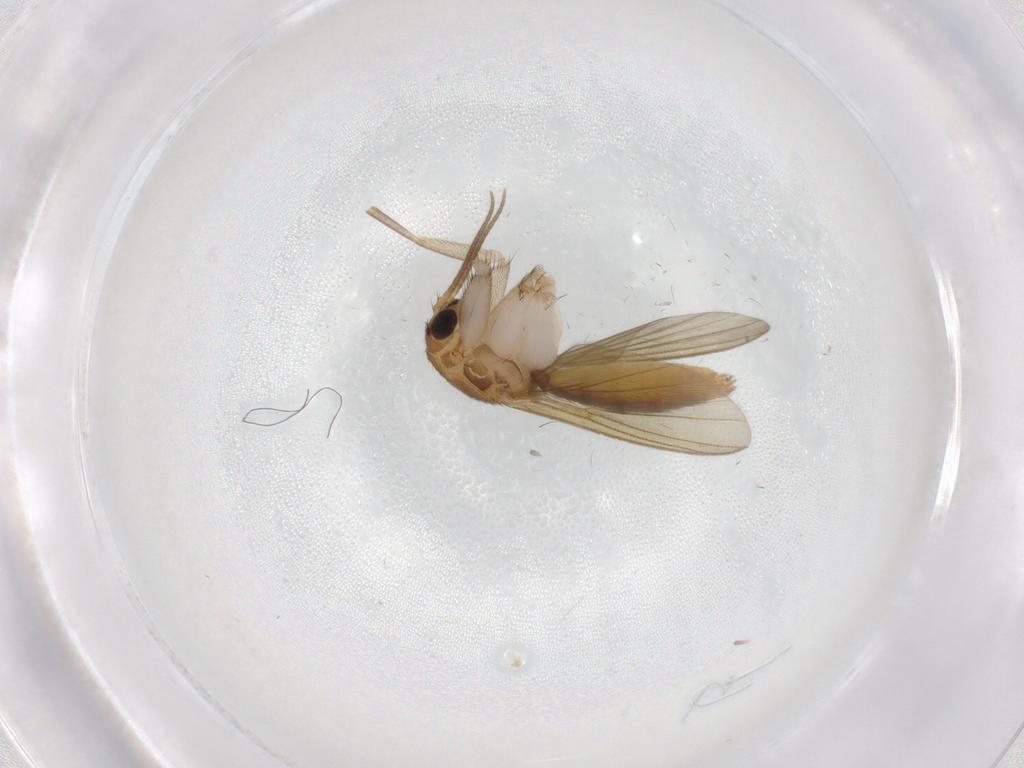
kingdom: Animalia
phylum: Arthropoda
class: Insecta
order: Diptera
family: Mycetophilidae
